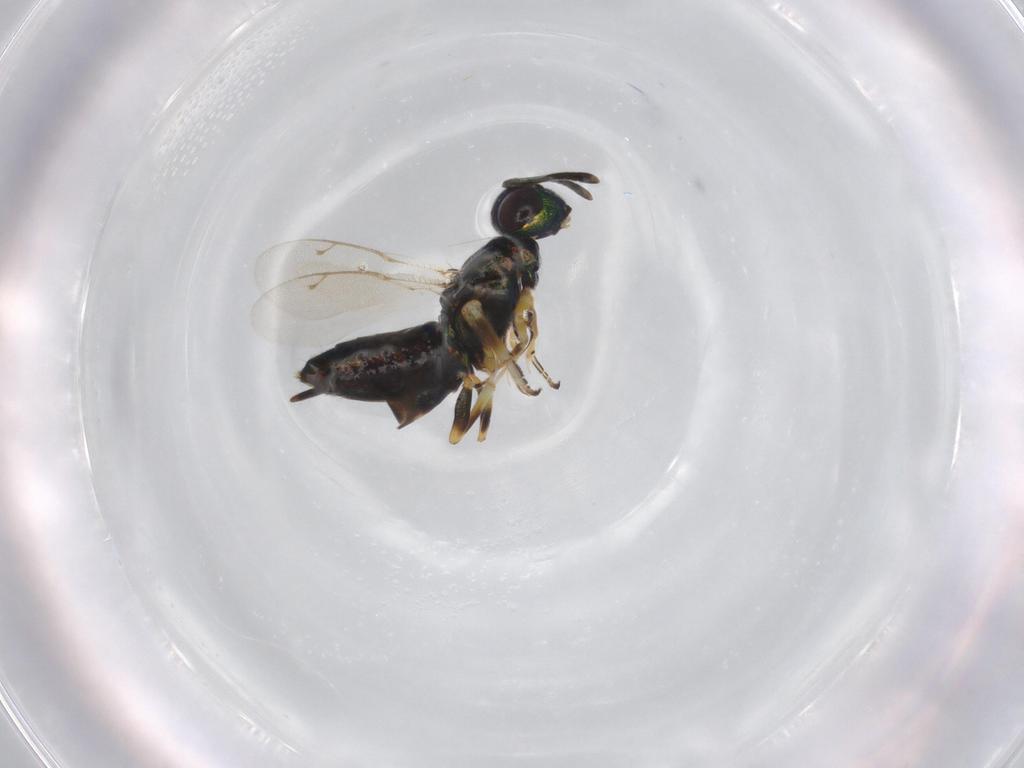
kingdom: Animalia
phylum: Arthropoda
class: Insecta
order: Hymenoptera
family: Eupelmidae
